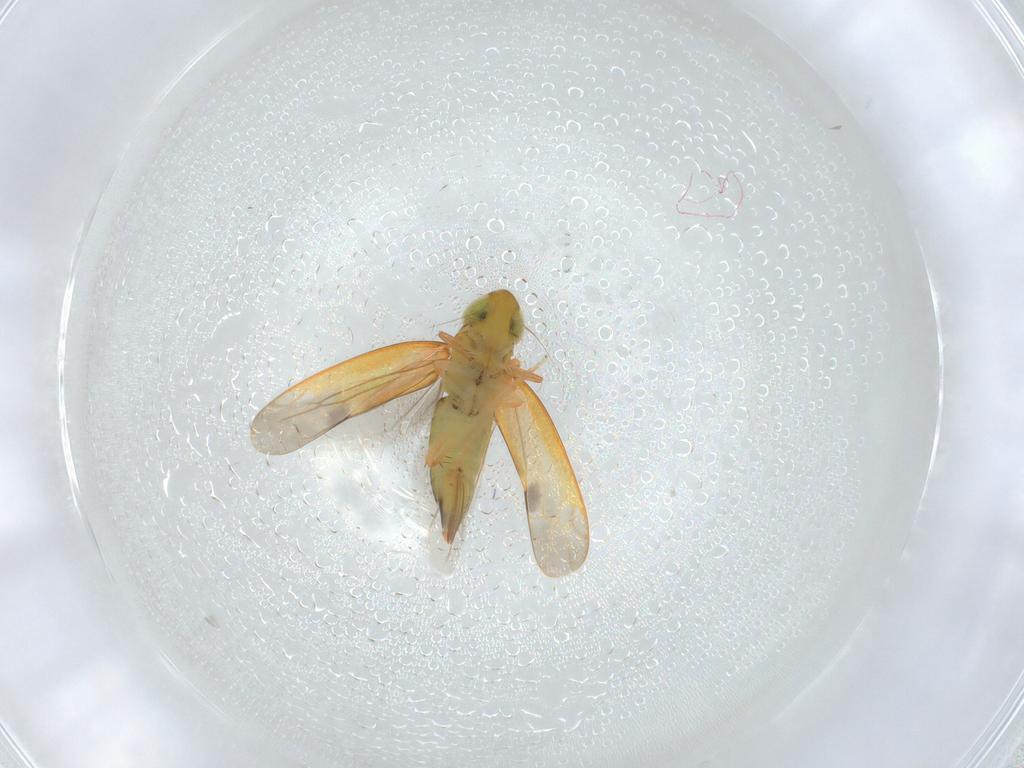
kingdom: Animalia
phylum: Arthropoda
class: Insecta
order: Hemiptera
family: Cicadellidae
